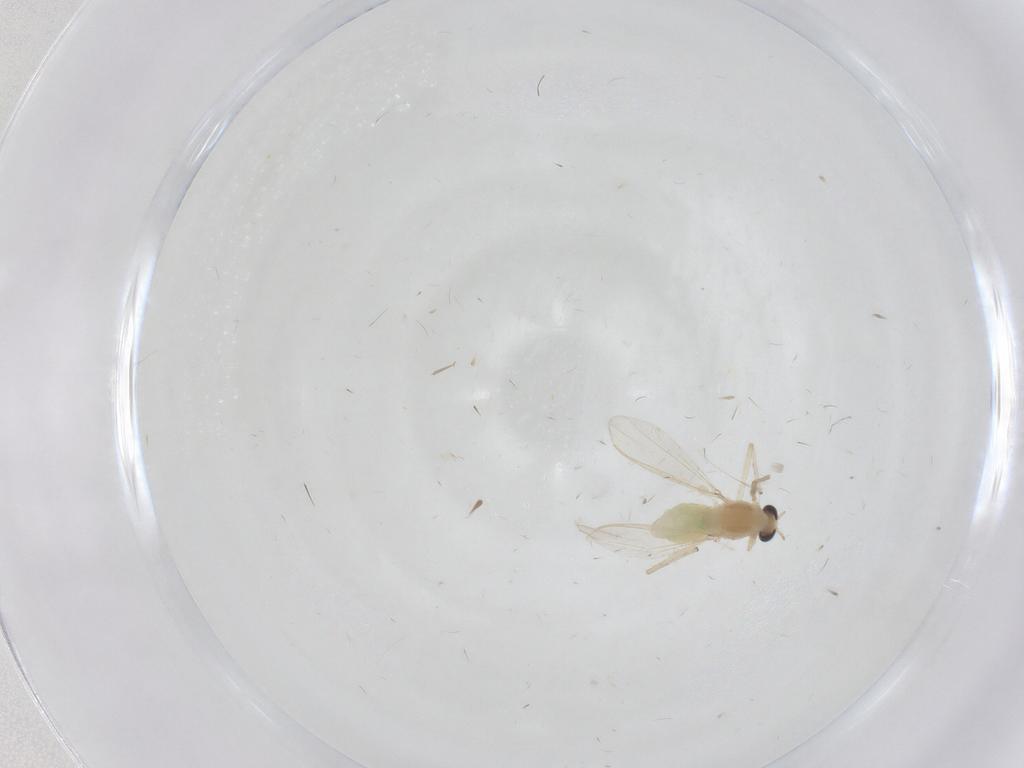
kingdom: Animalia
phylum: Arthropoda
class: Insecta
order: Diptera
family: Chironomidae
